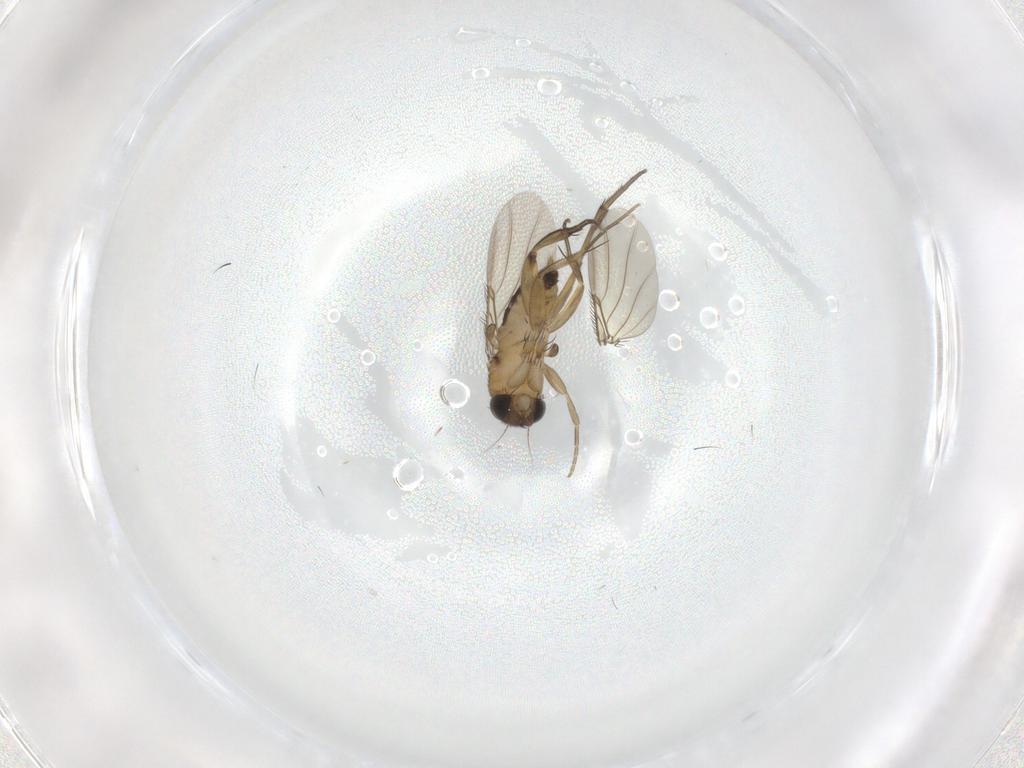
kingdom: Animalia
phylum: Arthropoda
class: Insecta
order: Diptera
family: Phoridae
